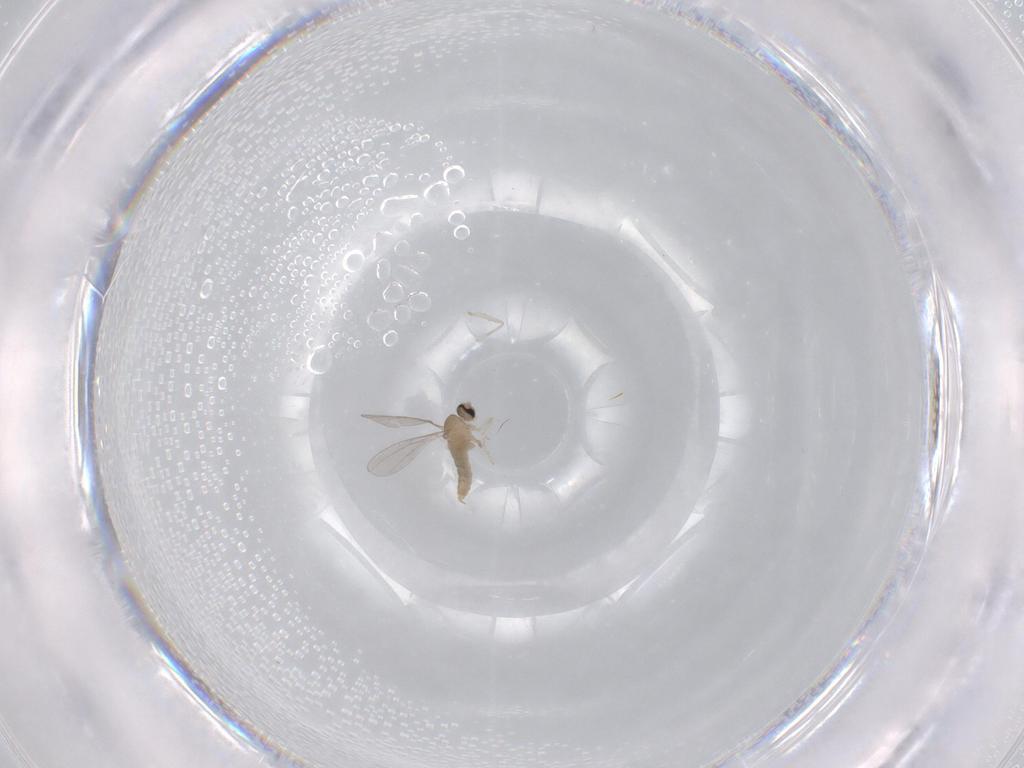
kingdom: Animalia
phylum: Arthropoda
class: Insecta
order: Diptera
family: Cecidomyiidae
